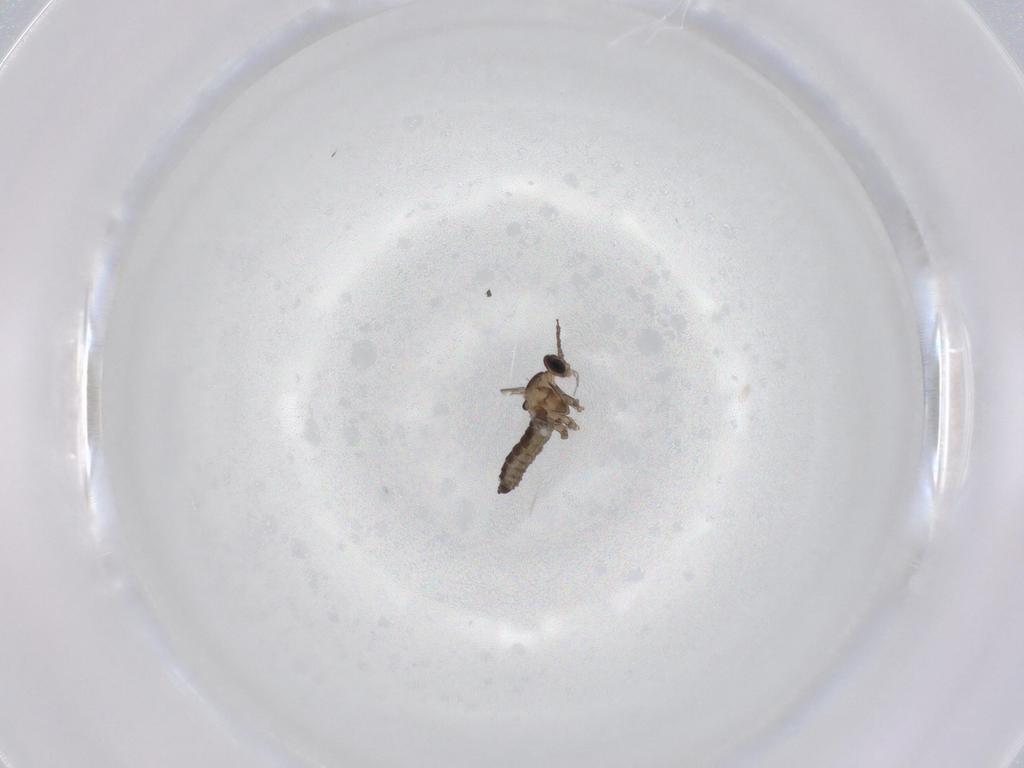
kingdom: Animalia
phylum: Arthropoda
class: Insecta
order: Diptera
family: Cecidomyiidae
